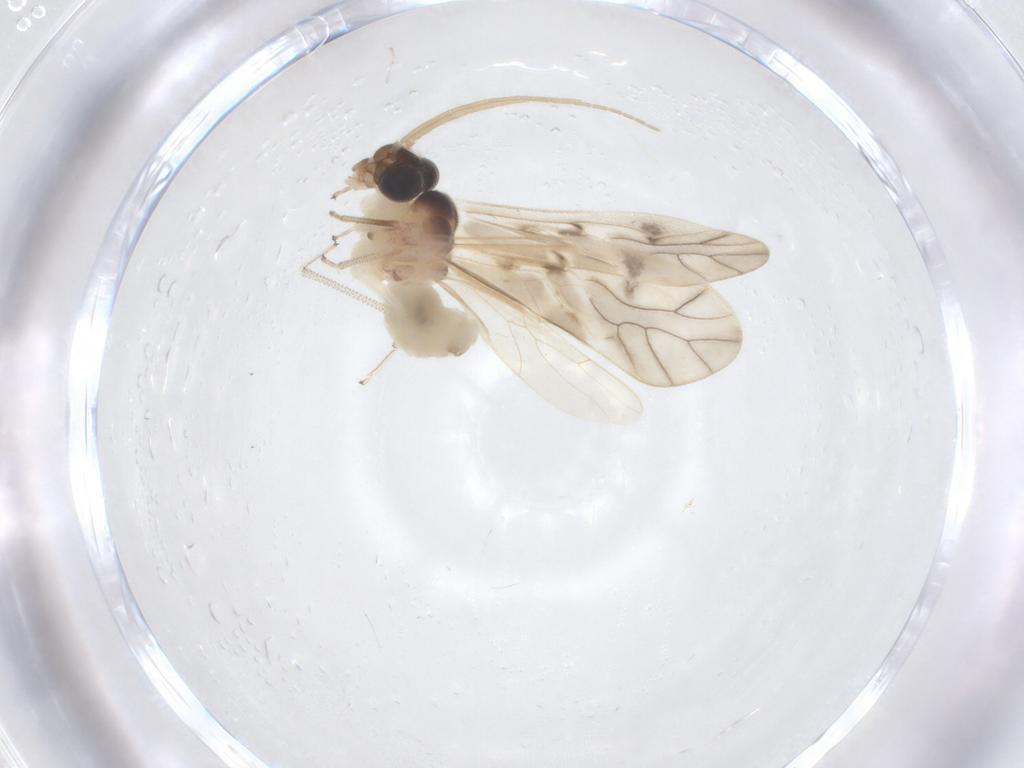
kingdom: Animalia
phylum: Arthropoda
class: Insecta
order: Psocodea
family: Caeciliusidae
